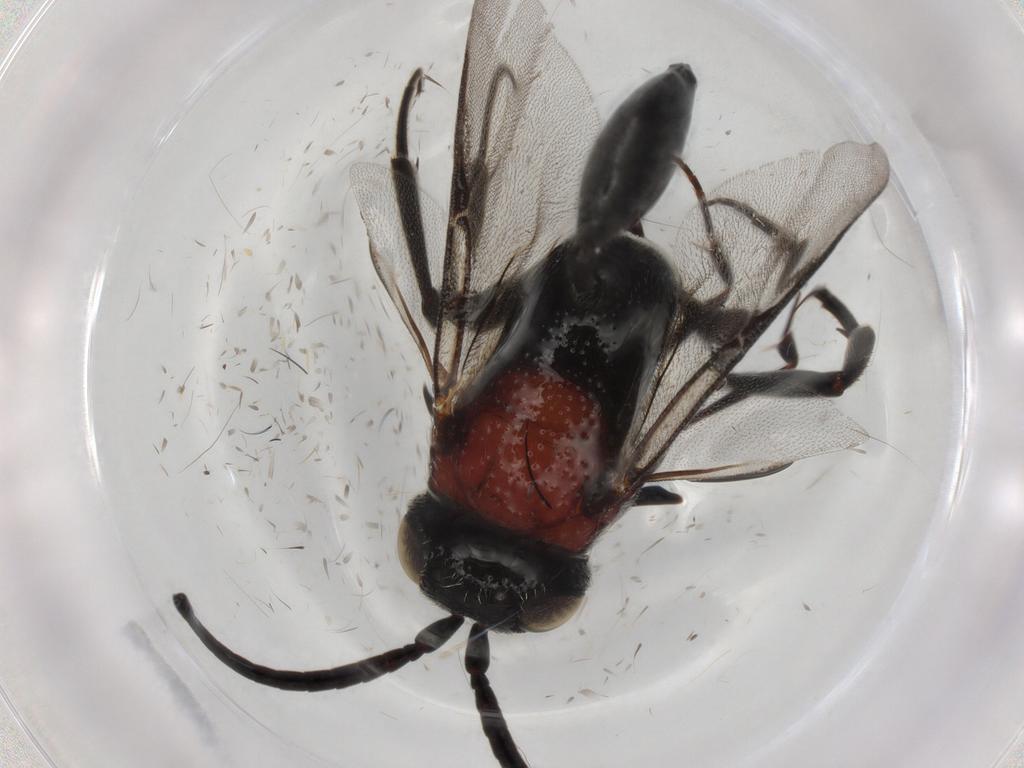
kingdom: Animalia
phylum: Arthropoda
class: Insecta
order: Hymenoptera
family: Evaniidae
